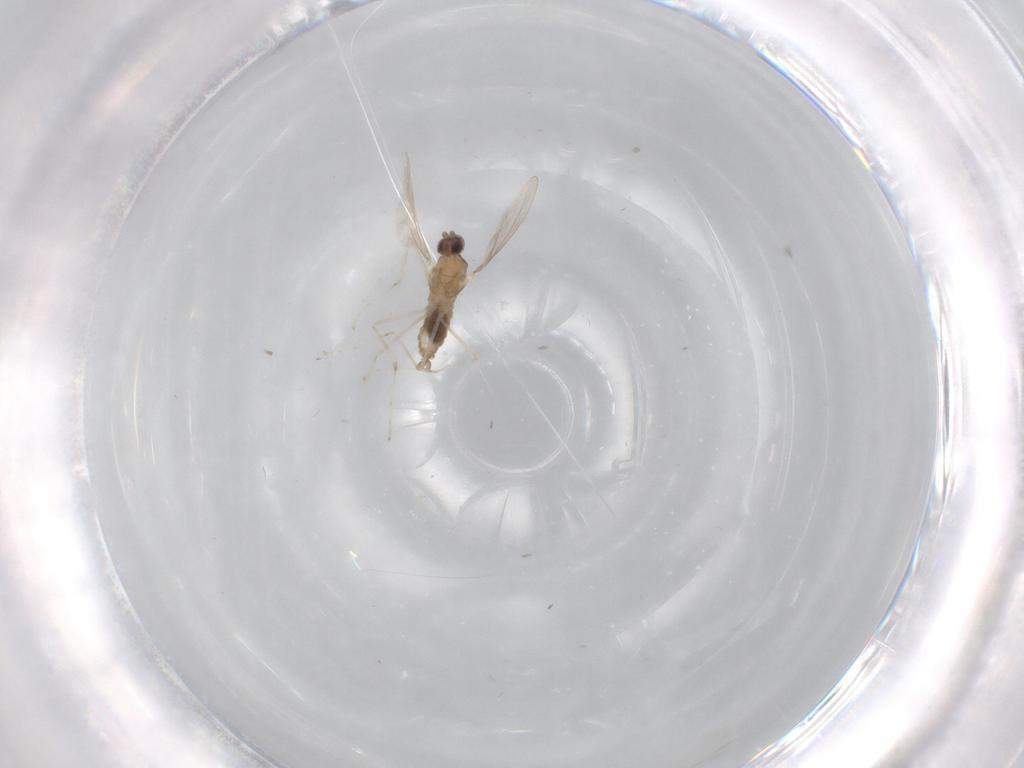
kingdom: Animalia
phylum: Arthropoda
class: Insecta
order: Diptera
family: Cecidomyiidae
